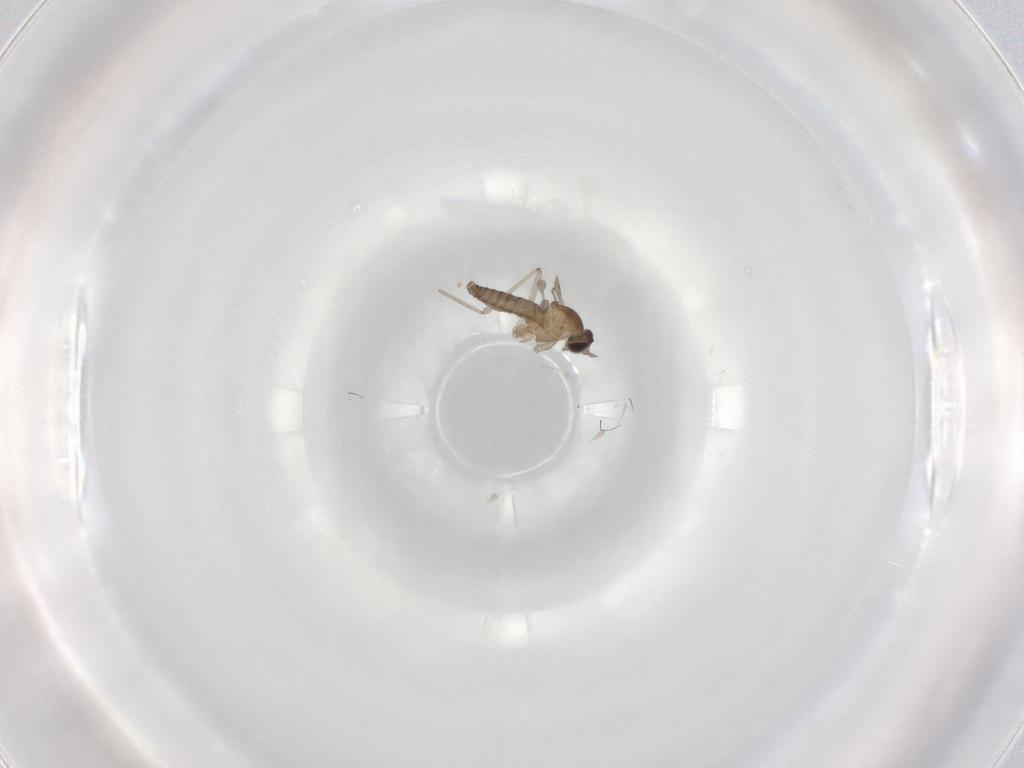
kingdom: Animalia
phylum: Arthropoda
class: Insecta
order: Diptera
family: Cecidomyiidae
